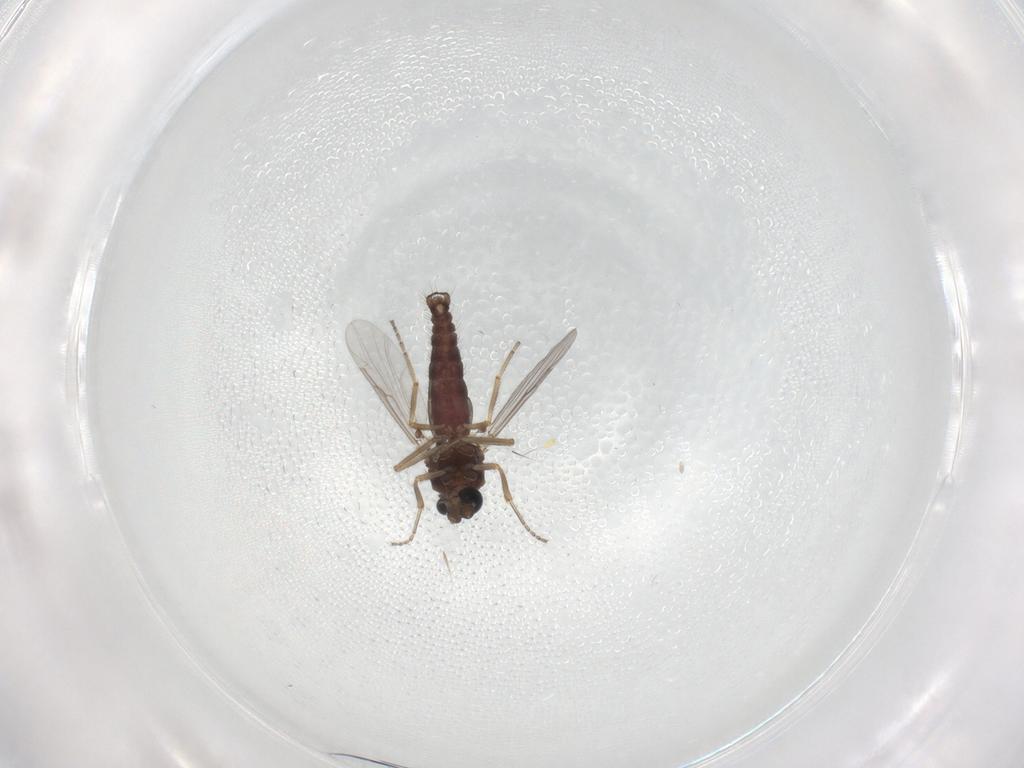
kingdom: Animalia
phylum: Arthropoda
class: Insecta
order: Diptera
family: Ceratopogonidae
